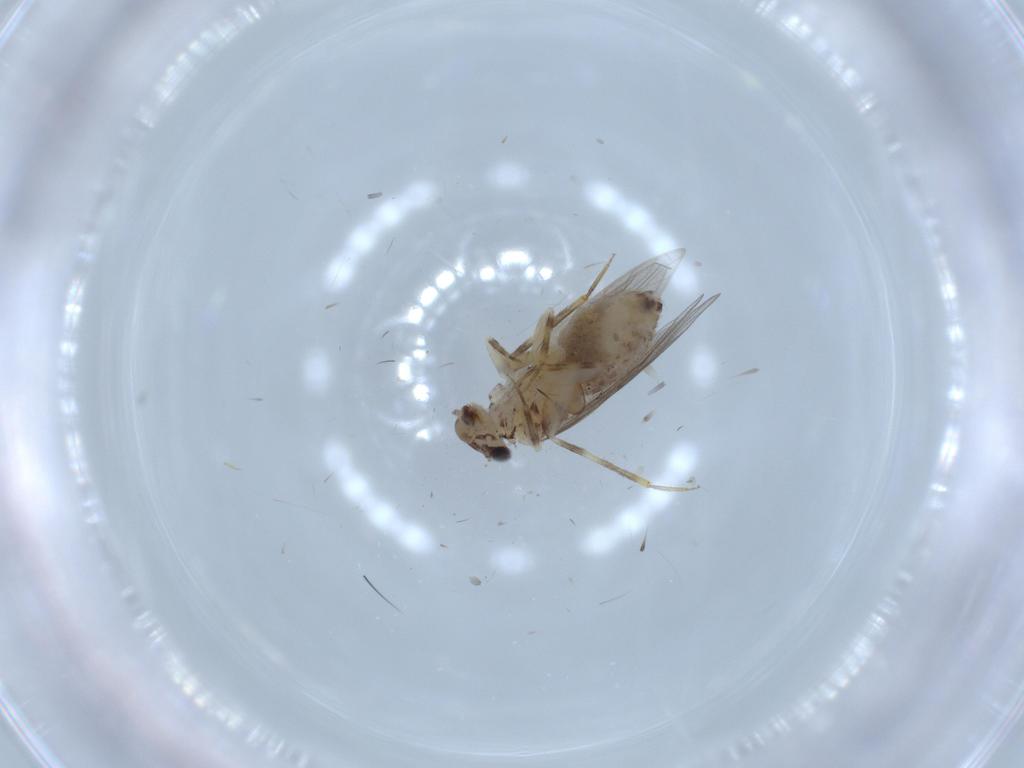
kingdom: Animalia
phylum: Arthropoda
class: Insecta
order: Psocodea
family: Lepidopsocidae
